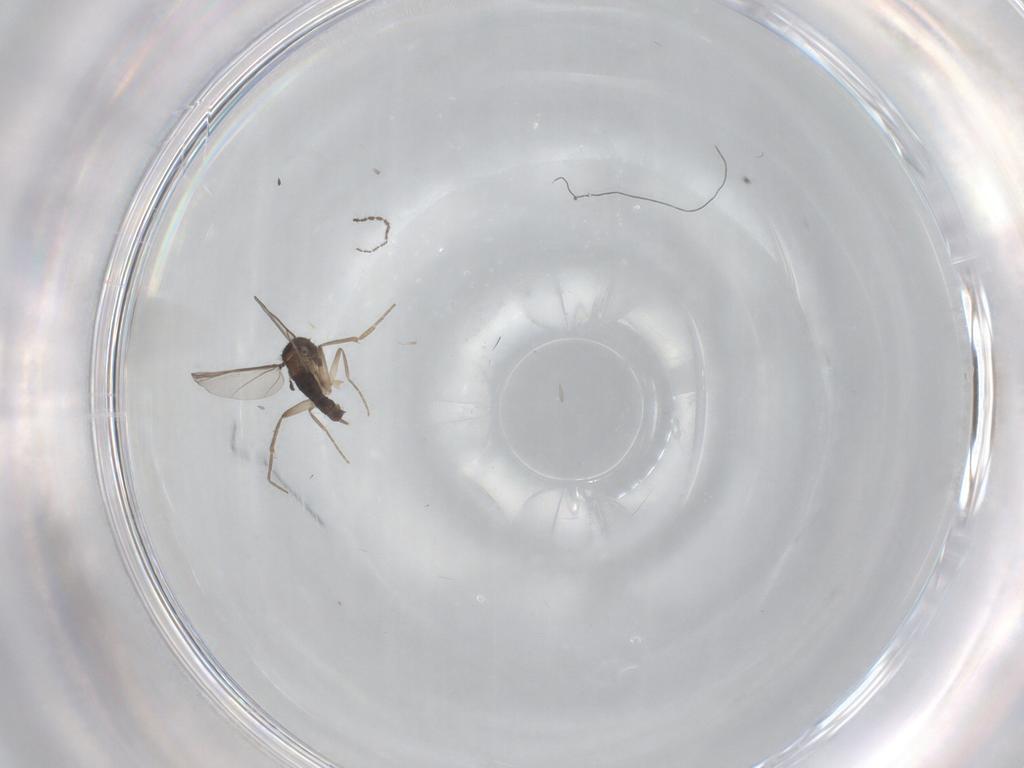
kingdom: Animalia
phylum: Arthropoda
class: Insecta
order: Diptera
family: Phoridae
